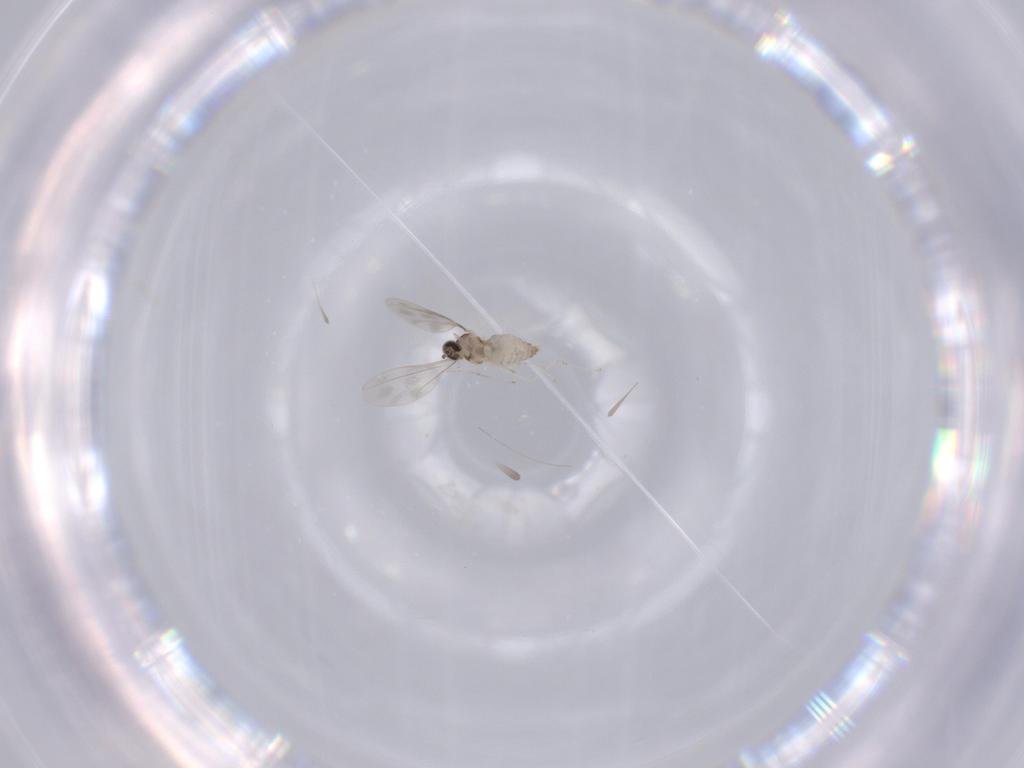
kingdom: Animalia
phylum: Arthropoda
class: Insecta
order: Diptera
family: Cecidomyiidae
